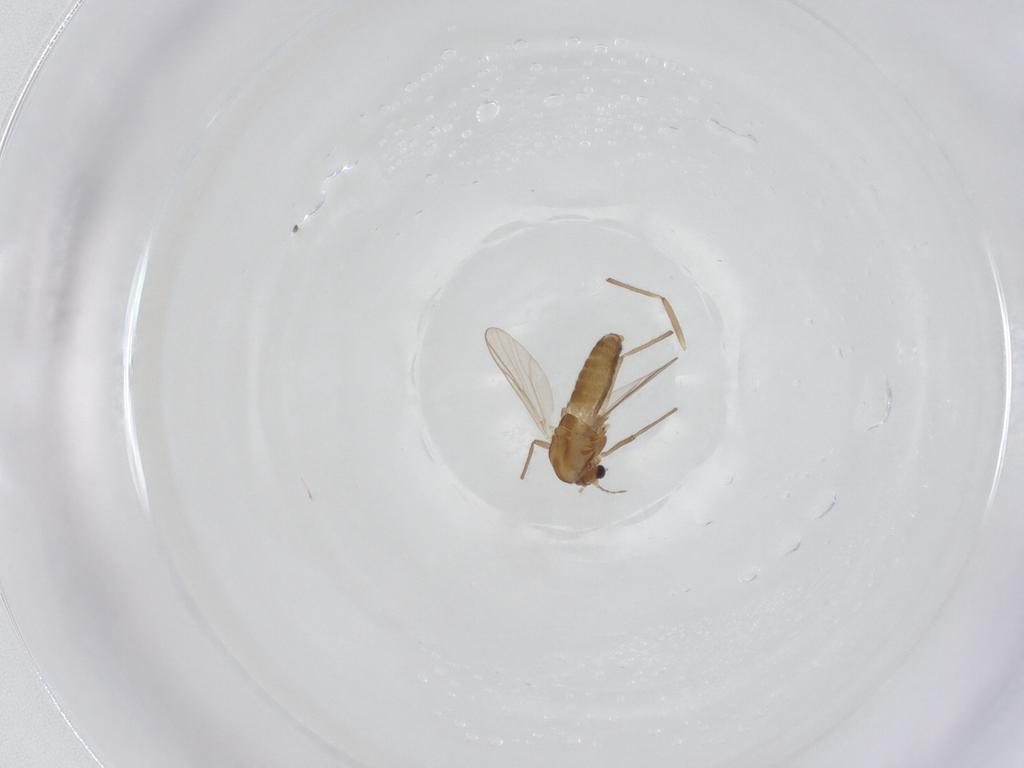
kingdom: Animalia
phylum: Arthropoda
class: Insecta
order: Diptera
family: Chironomidae
